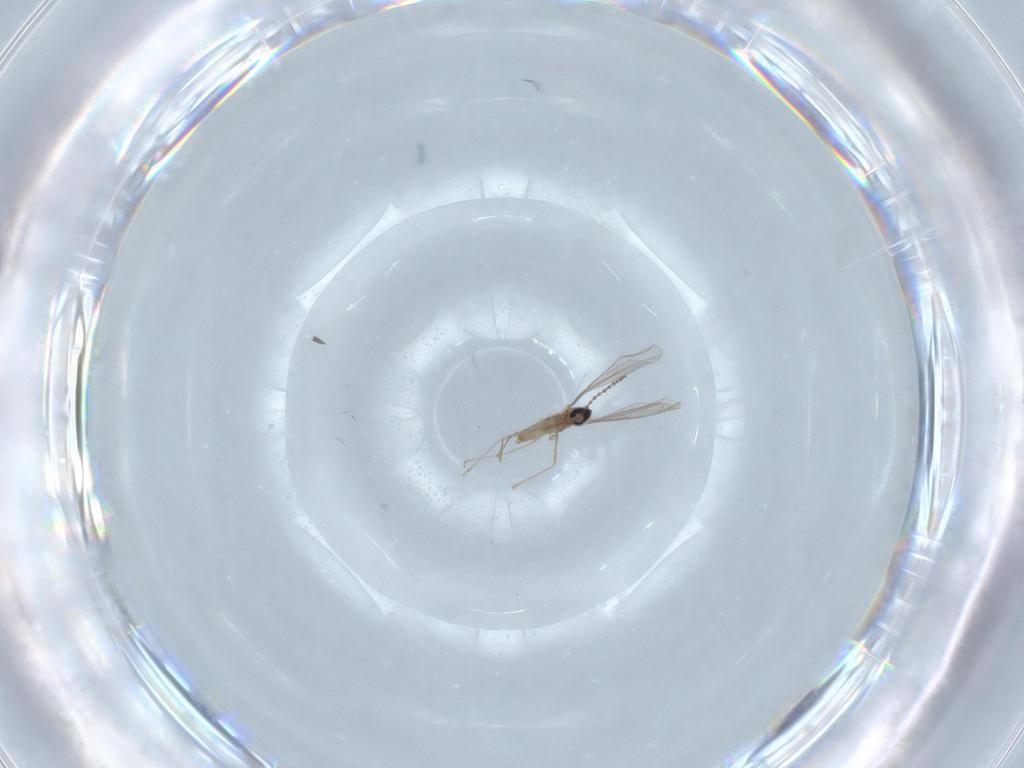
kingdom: Animalia
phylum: Arthropoda
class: Insecta
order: Diptera
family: Cecidomyiidae
